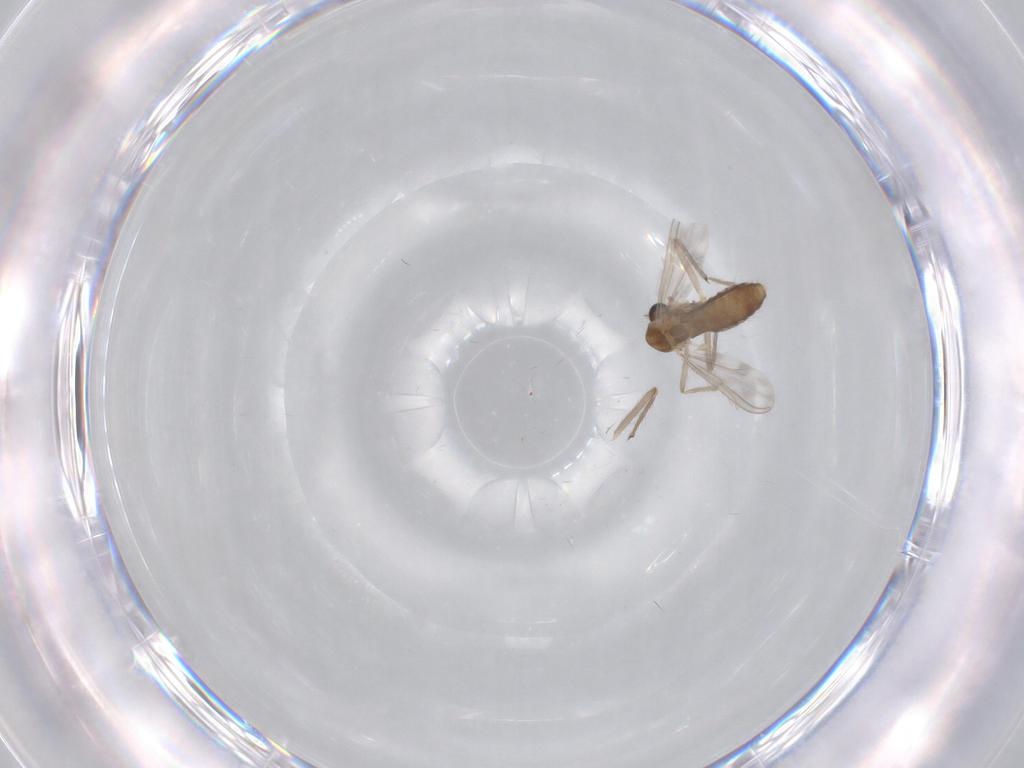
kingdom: Animalia
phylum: Arthropoda
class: Insecta
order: Diptera
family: Chironomidae
